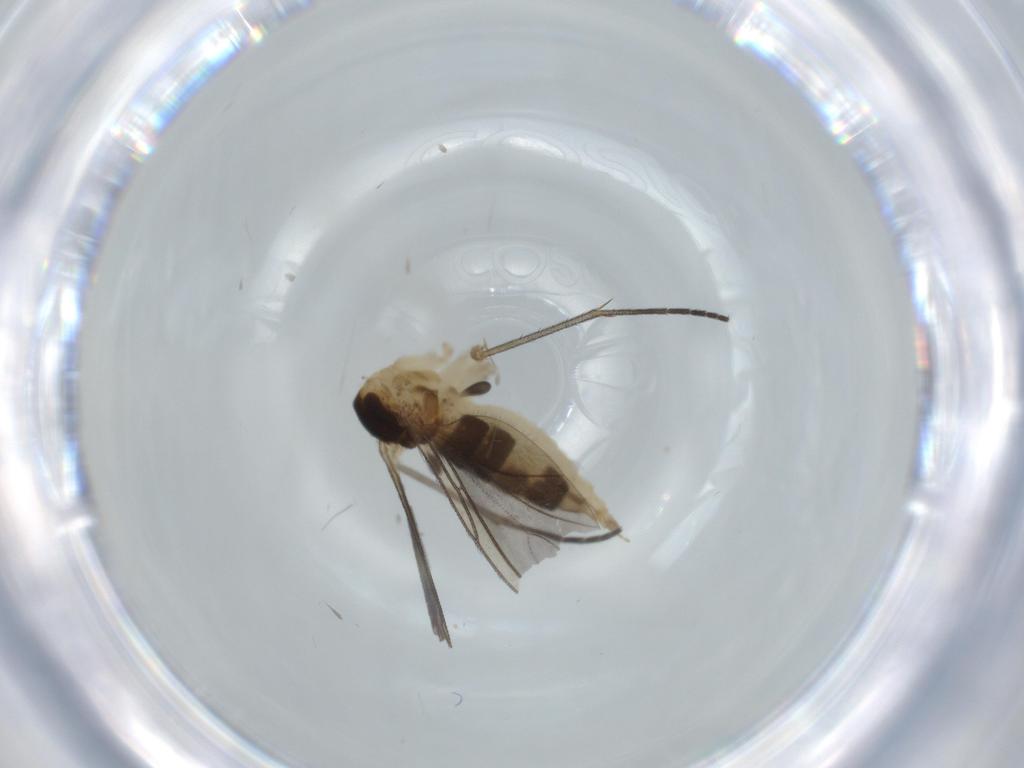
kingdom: Animalia
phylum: Arthropoda
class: Insecta
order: Diptera
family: Sciaridae
